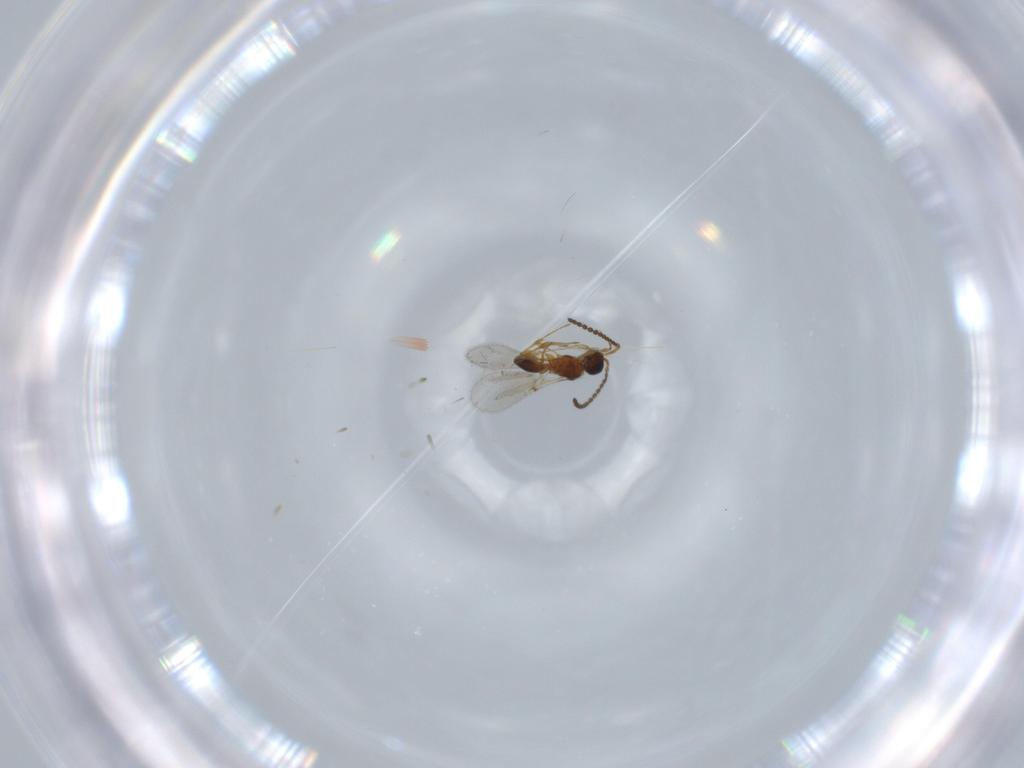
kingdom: Animalia
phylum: Arthropoda
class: Insecta
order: Hymenoptera
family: Diapriidae
